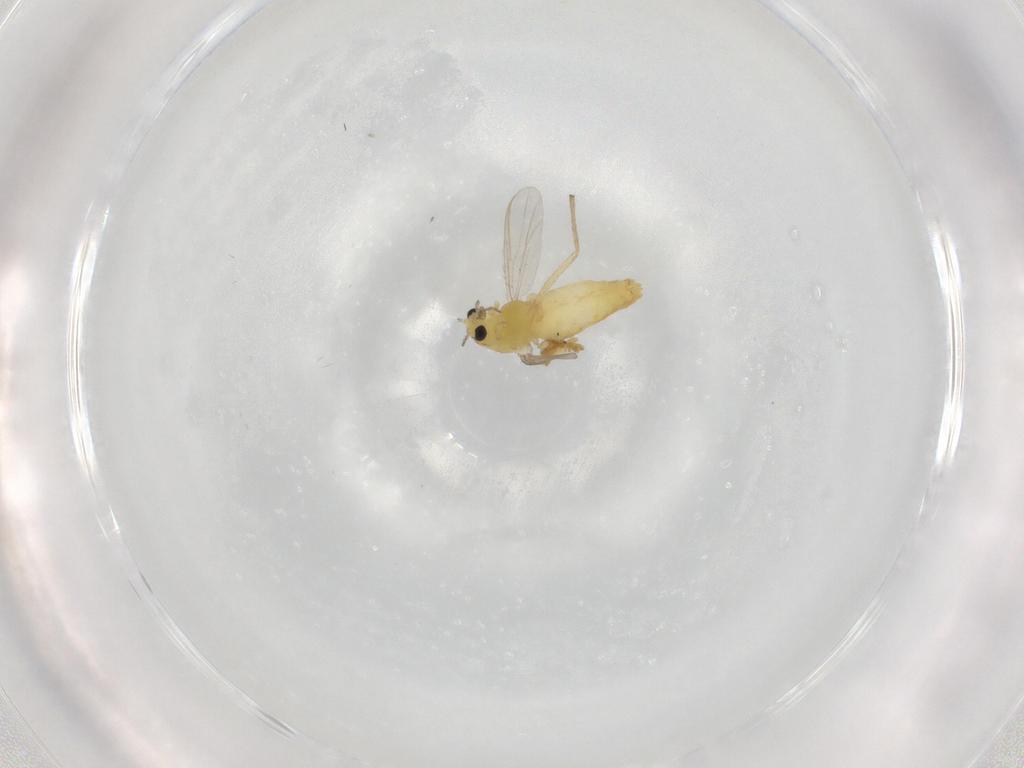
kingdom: Animalia
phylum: Arthropoda
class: Insecta
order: Diptera
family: Chironomidae
